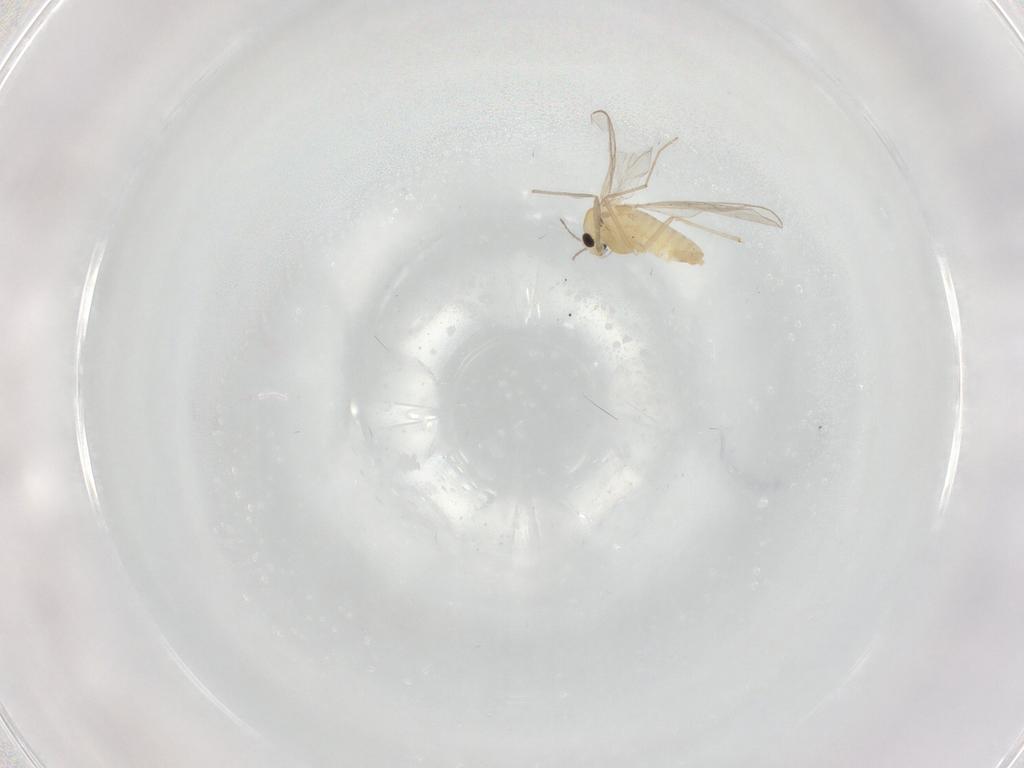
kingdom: Animalia
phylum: Arthropoda
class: Insecta
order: Diptera
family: Chironomidae
